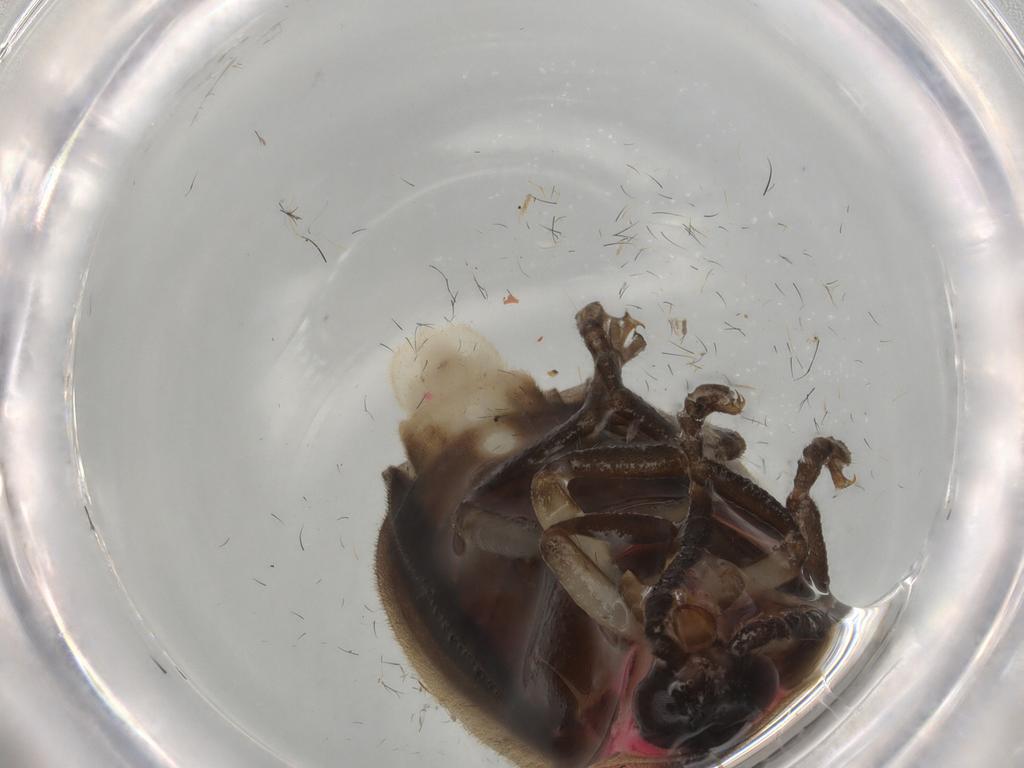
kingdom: Animalia
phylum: Arthropoda
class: Insecta
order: Coleoptera
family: Lampyridae
